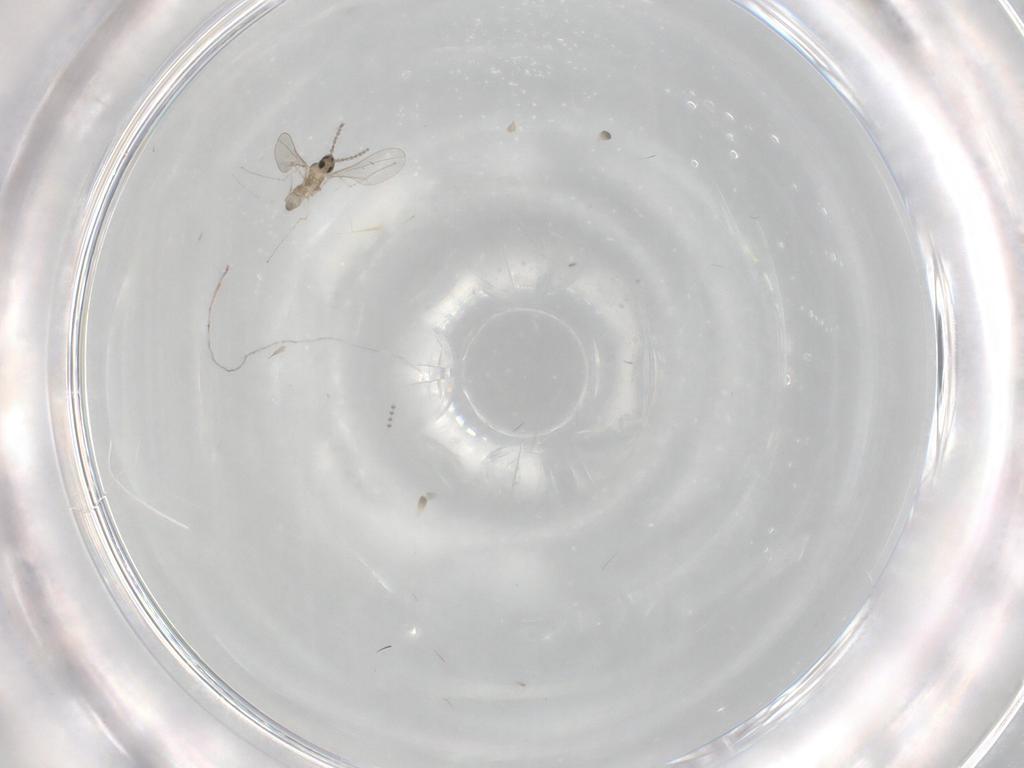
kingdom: Animalia
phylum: Arthropoda
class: Insecta
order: Diptera
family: Cecidomyiidae
